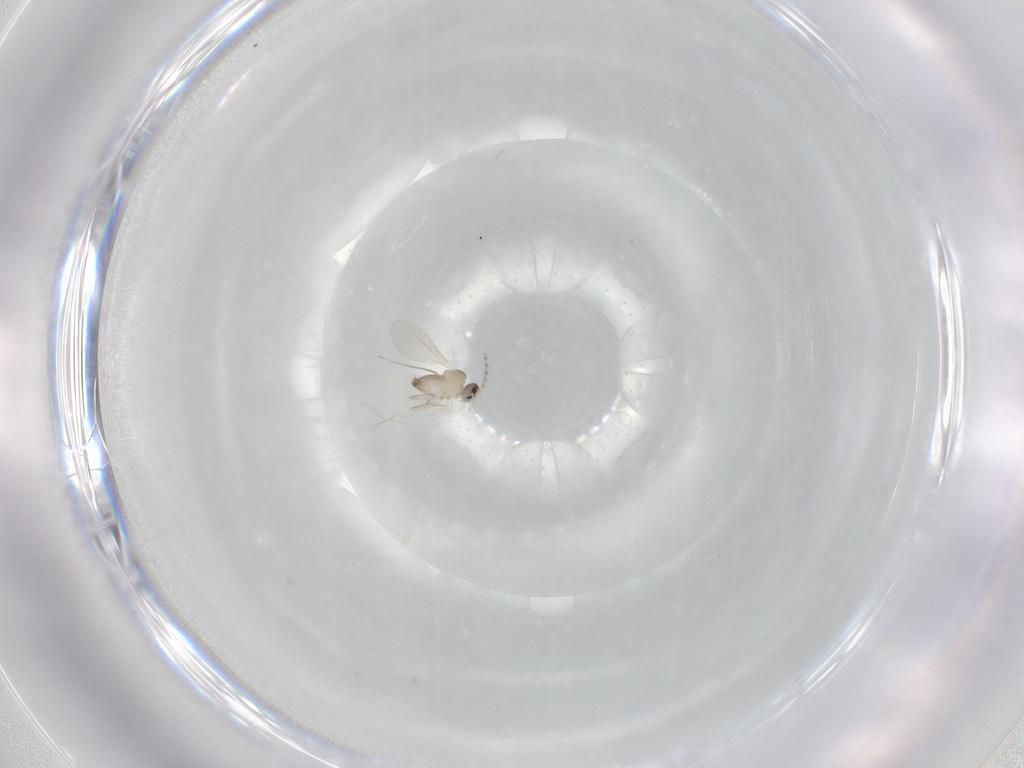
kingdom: Animalia
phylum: Arthropoda
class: Insecta
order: Diptera
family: Cecidomyiidae
